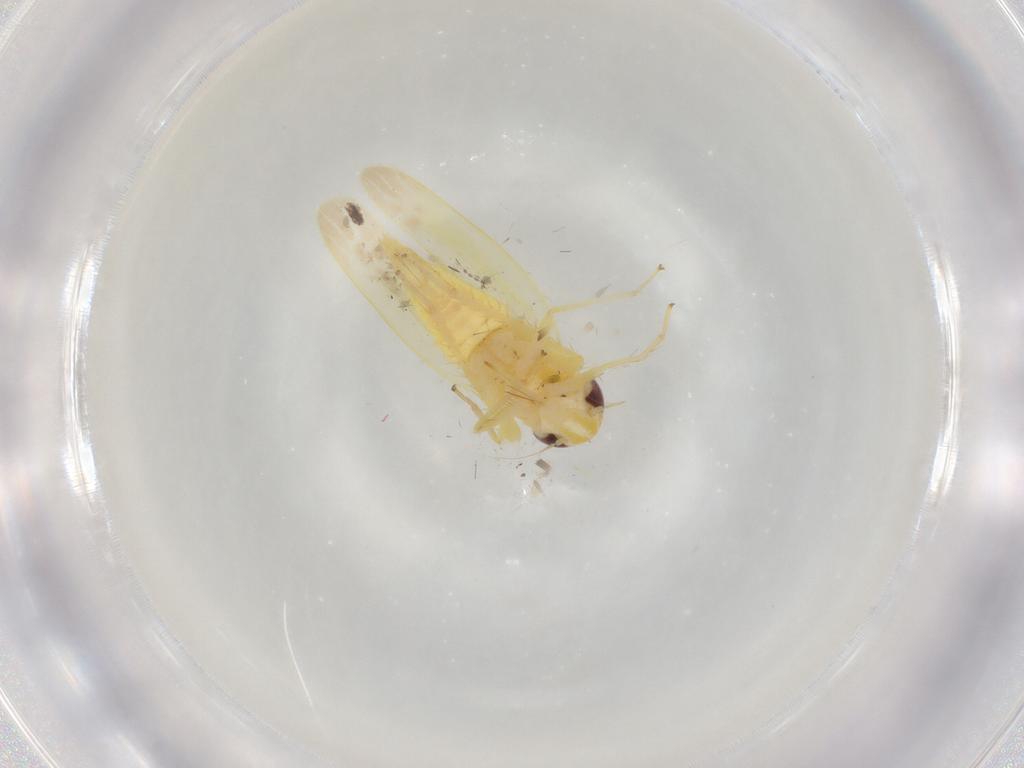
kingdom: Animalia
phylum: Arthropoda
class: Insecta
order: Hemiptera
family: Cicadellidae
